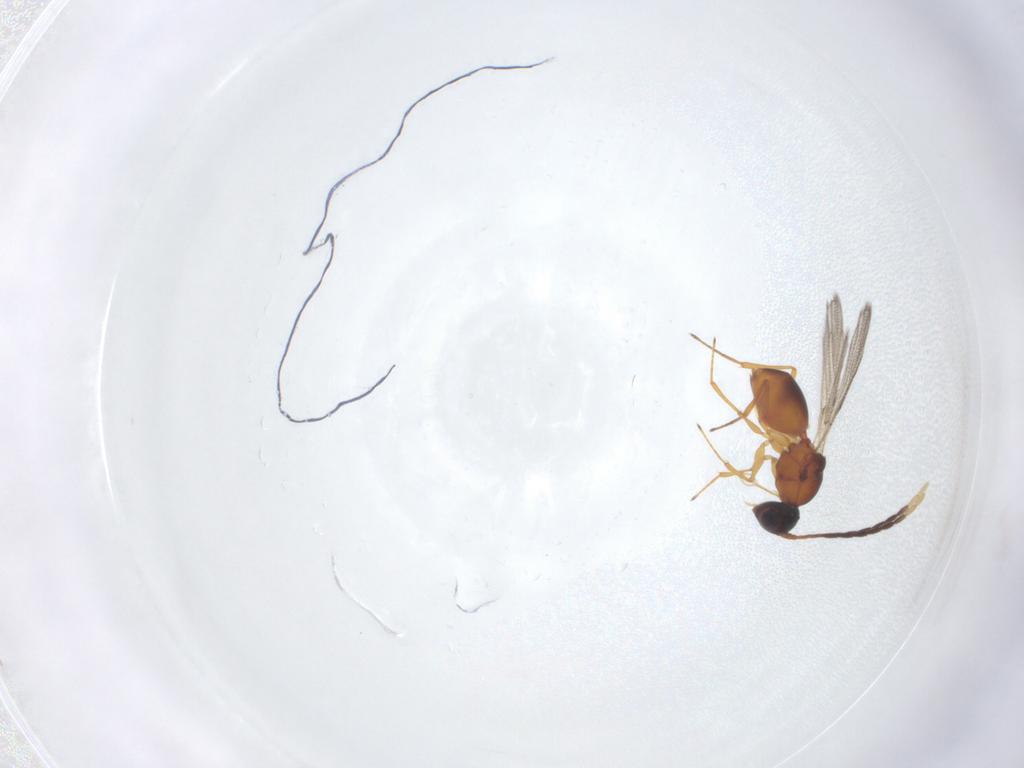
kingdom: Animalia
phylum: Arthropoda
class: Insecta
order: Hymenoptera
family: Figitidae
